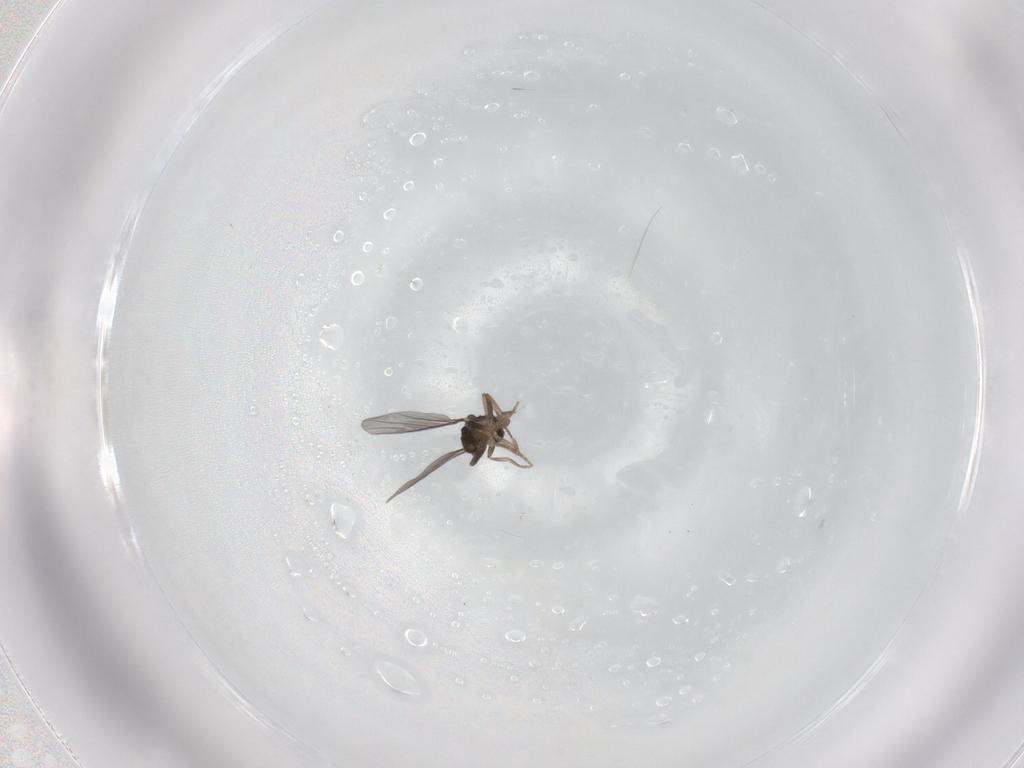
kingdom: Animalia
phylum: Arthropoda
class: Insecta
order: Diptera
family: Phoridae
